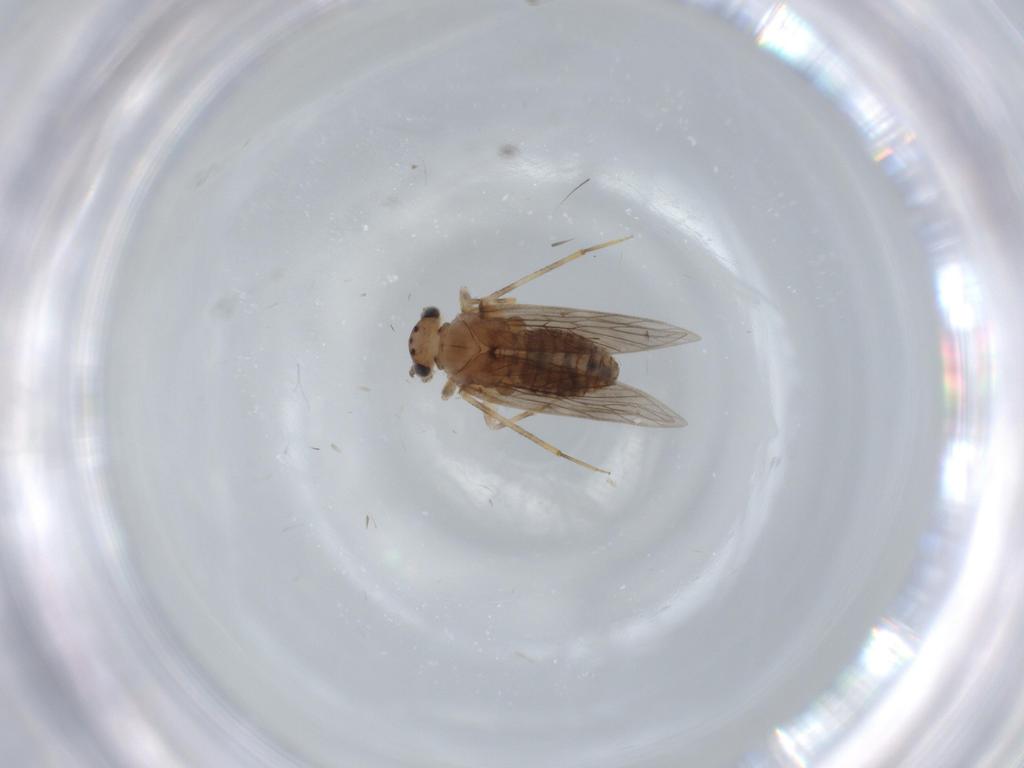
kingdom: Animalia
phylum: Arthropoda
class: Insecta
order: Psocodea
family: Lepidopsocidae
